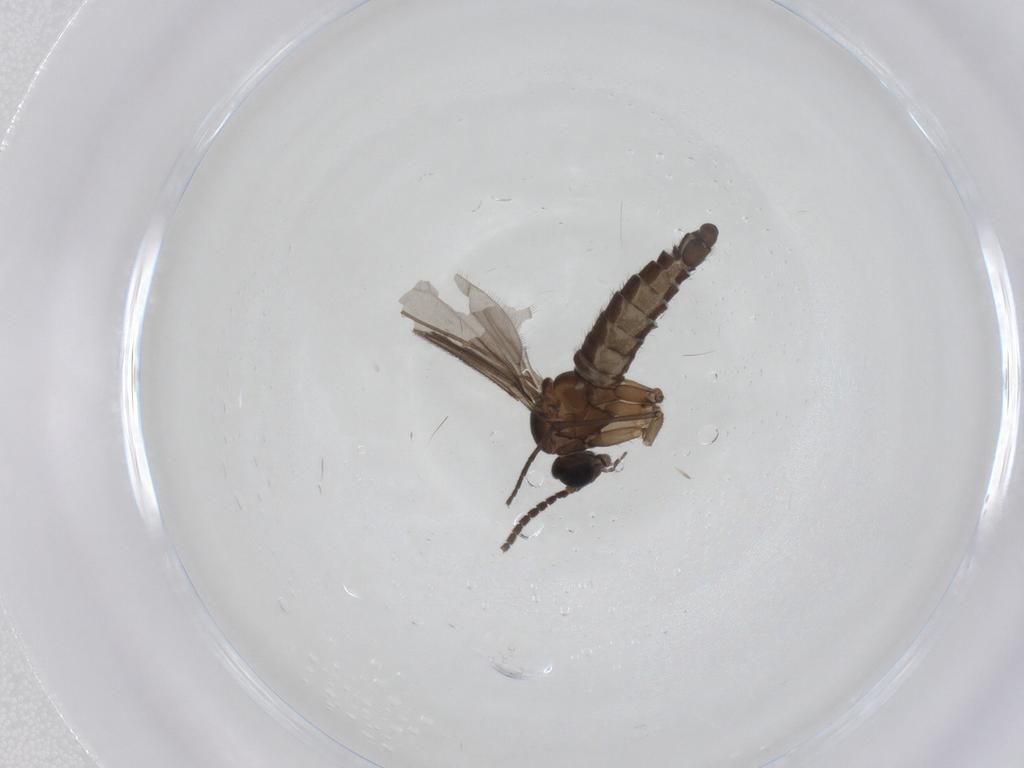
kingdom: Animalia
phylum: Arthropoda
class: Insecta
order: Diptera
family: Sciaridae
